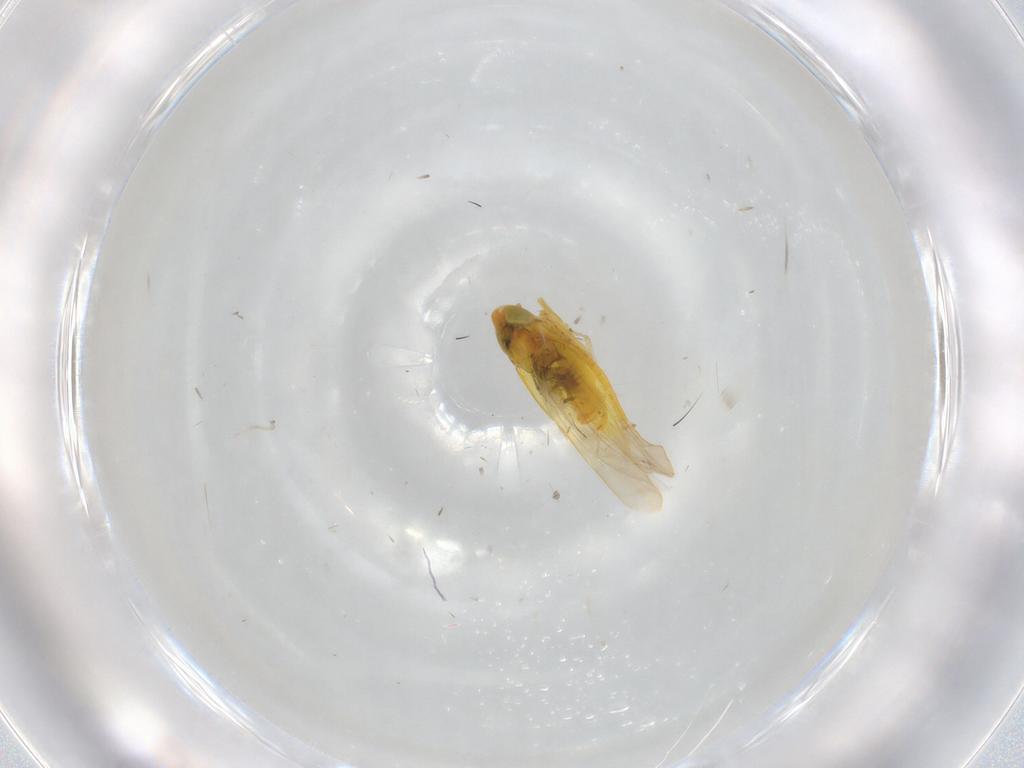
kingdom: Animalia
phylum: Arthropoda
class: Insecta
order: Hemiptera
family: Cicadellidae
